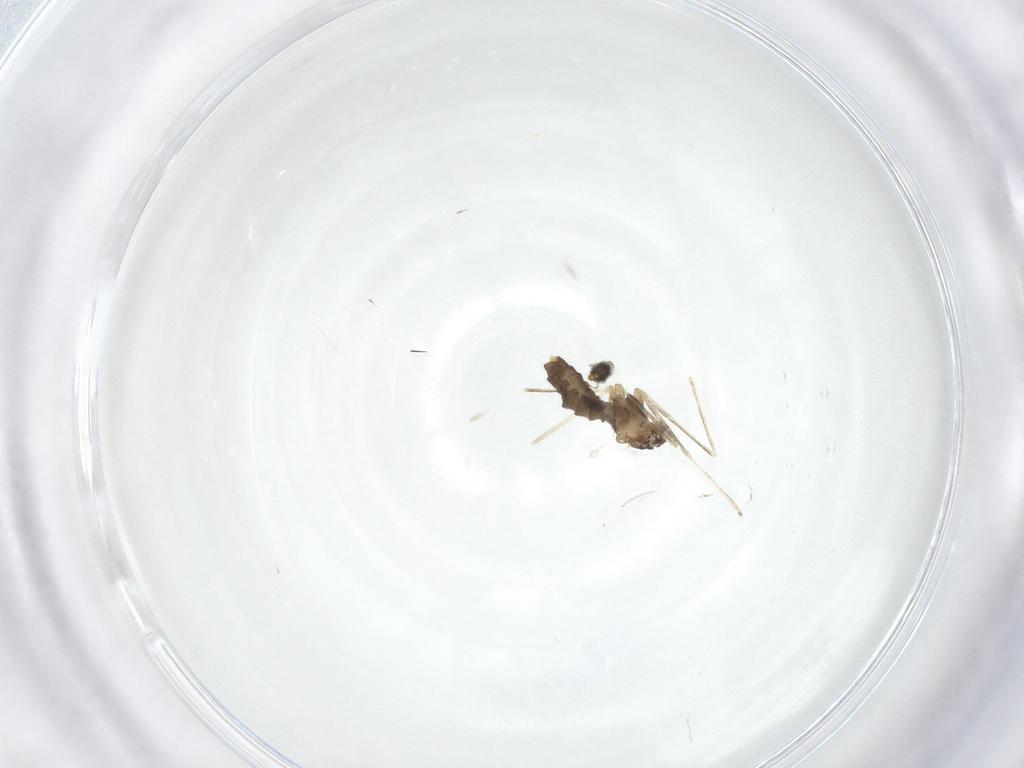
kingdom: Animalia
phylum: Arthropoda
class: Insecta
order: Diptera
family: Cecidomyiidae
